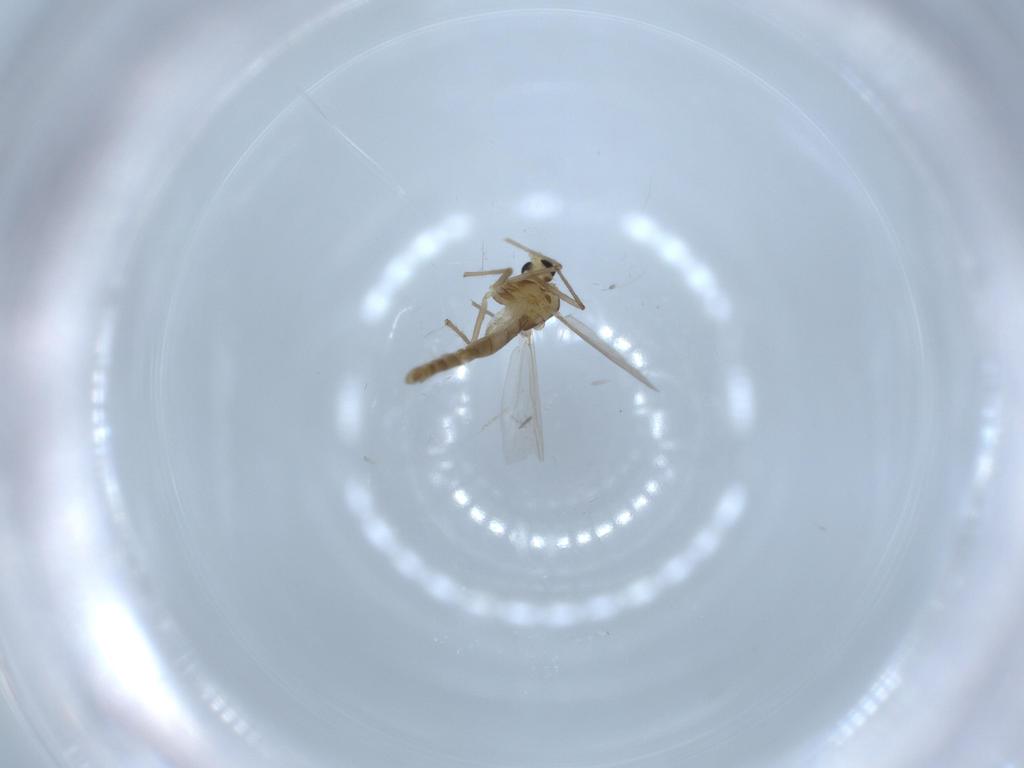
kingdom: Animalia
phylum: Arthropoda
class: Insecta
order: Diptera
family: Chironomidae
